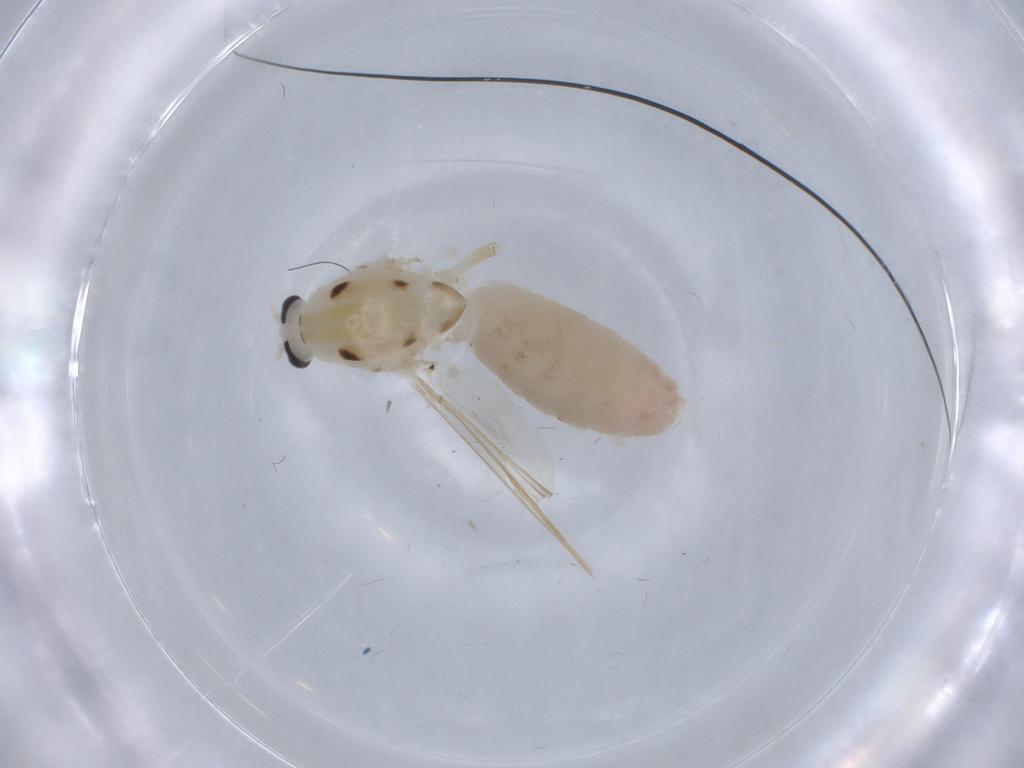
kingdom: Animalia
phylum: Arthropoda
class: Insecta
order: Diptera
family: Chironomidae
